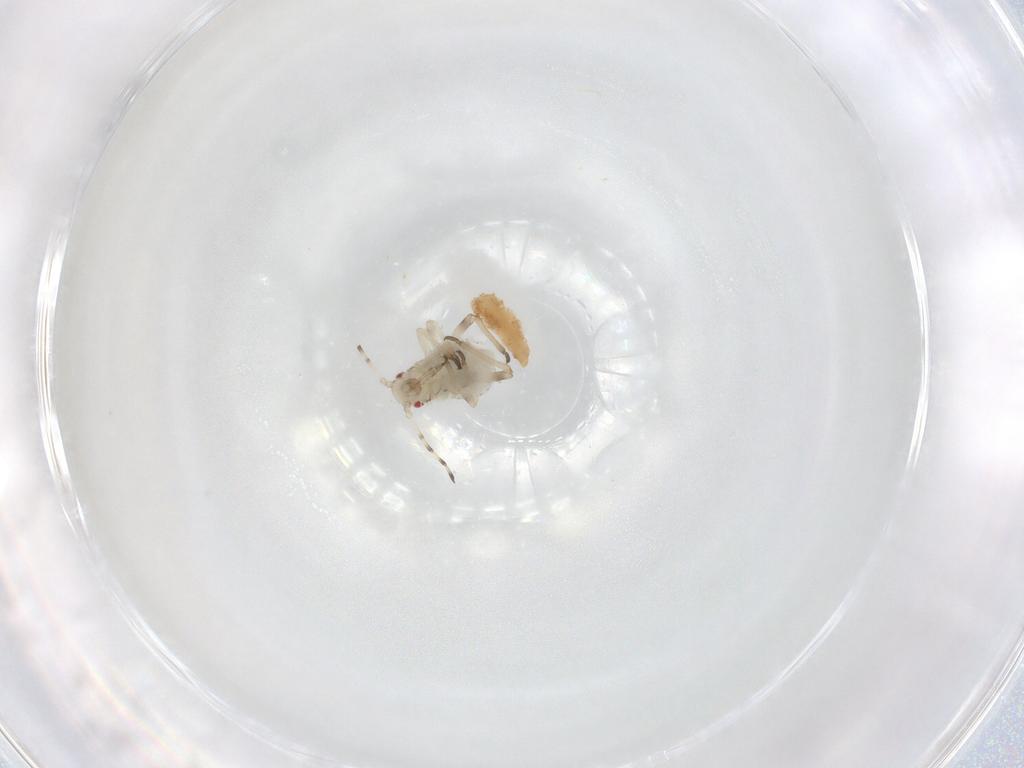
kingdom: Animalia
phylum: Arthropoda
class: Insecta
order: Hemiptera
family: Aphididae
